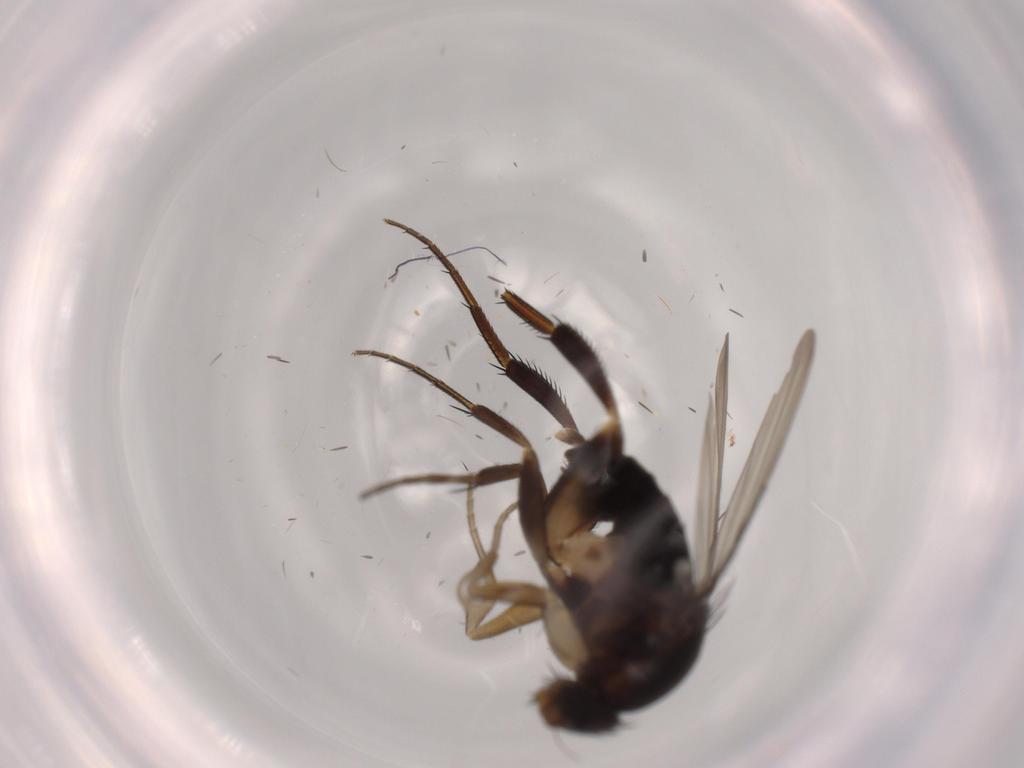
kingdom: Animalia
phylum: Arthropoda
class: Insecta
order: Diptera
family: Phoridae
